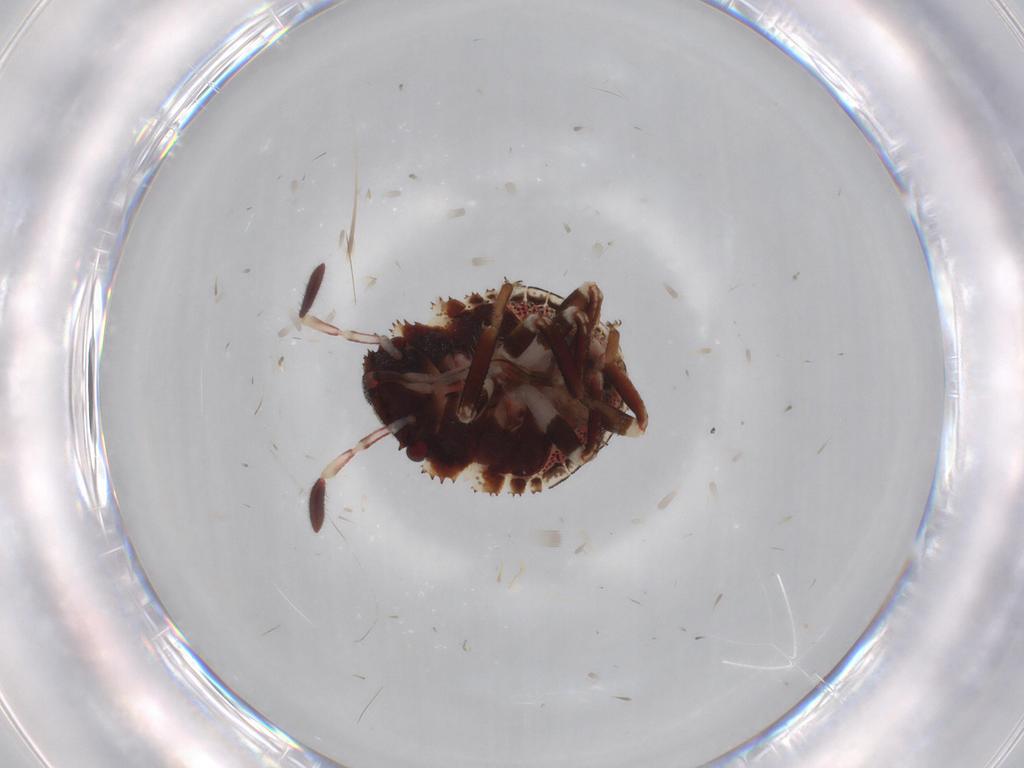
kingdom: Animalia
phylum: Arthropoda
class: Insecta
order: Hemiptera
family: Scutelleridae
